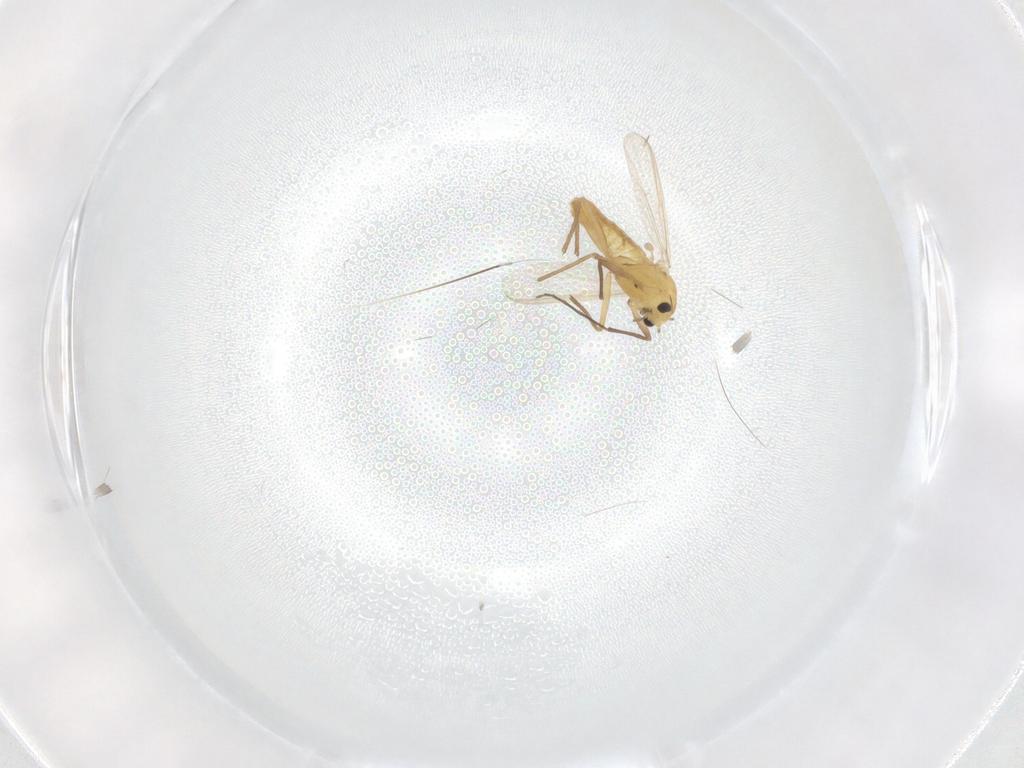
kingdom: Animalia
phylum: Arthropoda
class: Insecta
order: Diptera
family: Chironomidae
